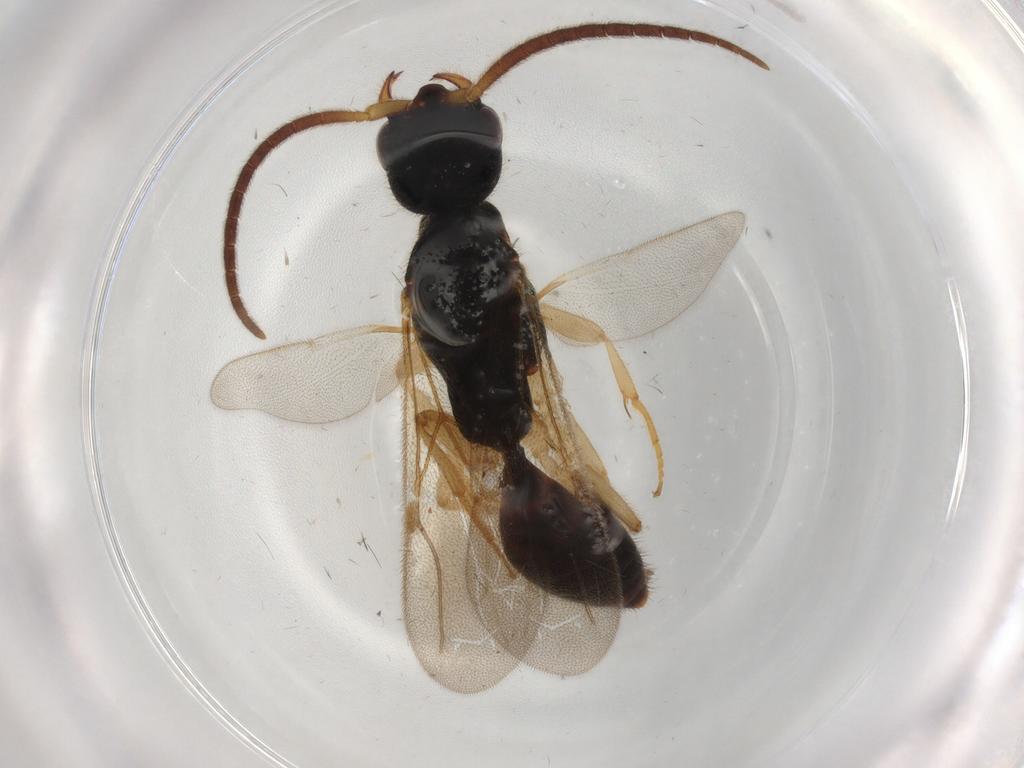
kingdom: Animalia
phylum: Arthropoda
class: Insecta
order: Hymenoptera
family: Bethylidae
